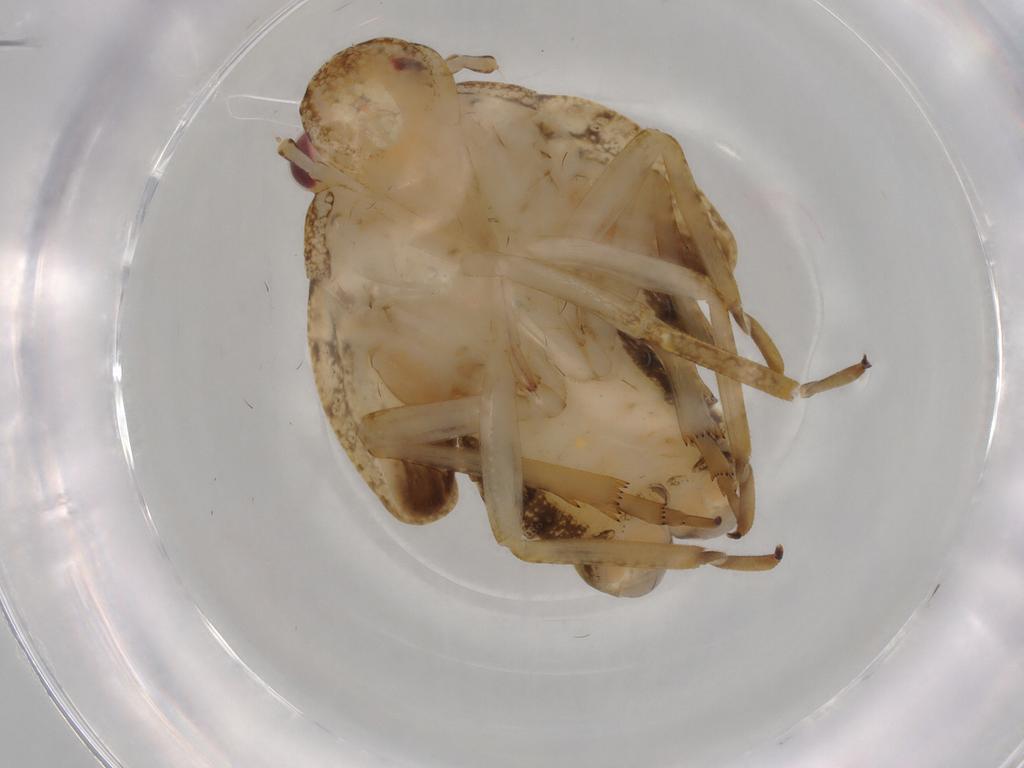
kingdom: Animalia
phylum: Arthropoda
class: Insecta
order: Hemiptera
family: Flatidae
